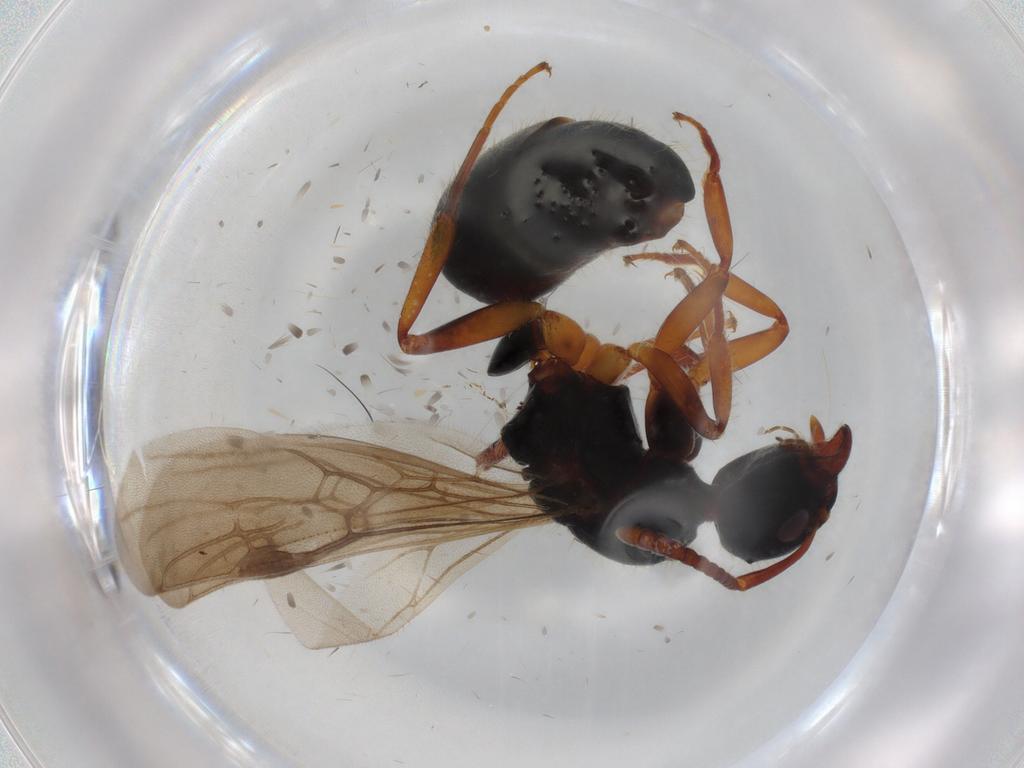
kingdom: Animalia
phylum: Arthropoda
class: Insecta
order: Hymenoptera
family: Formicidae
